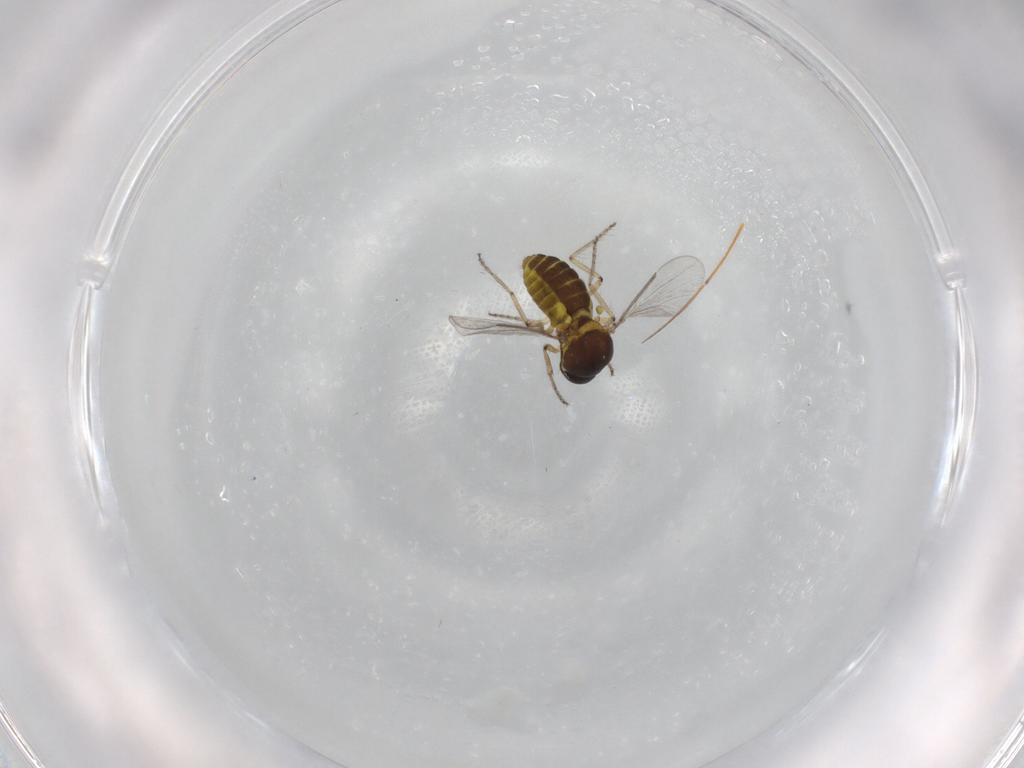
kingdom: Animalia
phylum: Arthropoda
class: Insecta
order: Diptera
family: Ceratopogonidae
